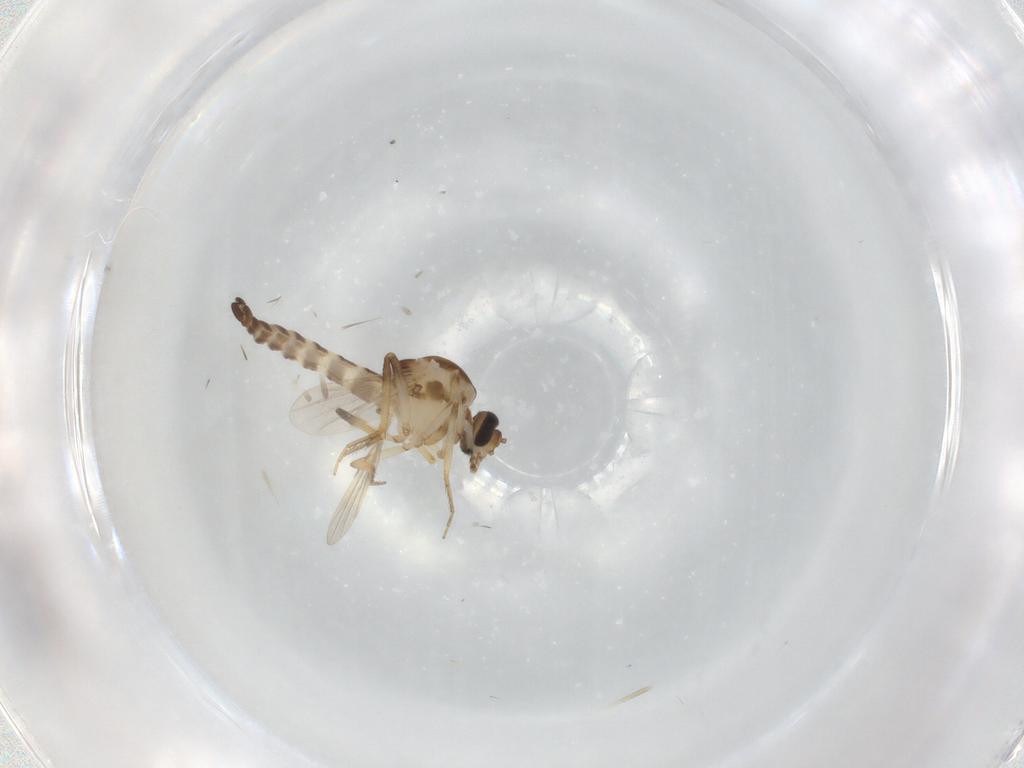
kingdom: Animalia
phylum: Arthropoda
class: Insecta
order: Diptera
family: Ceratopogonidae
